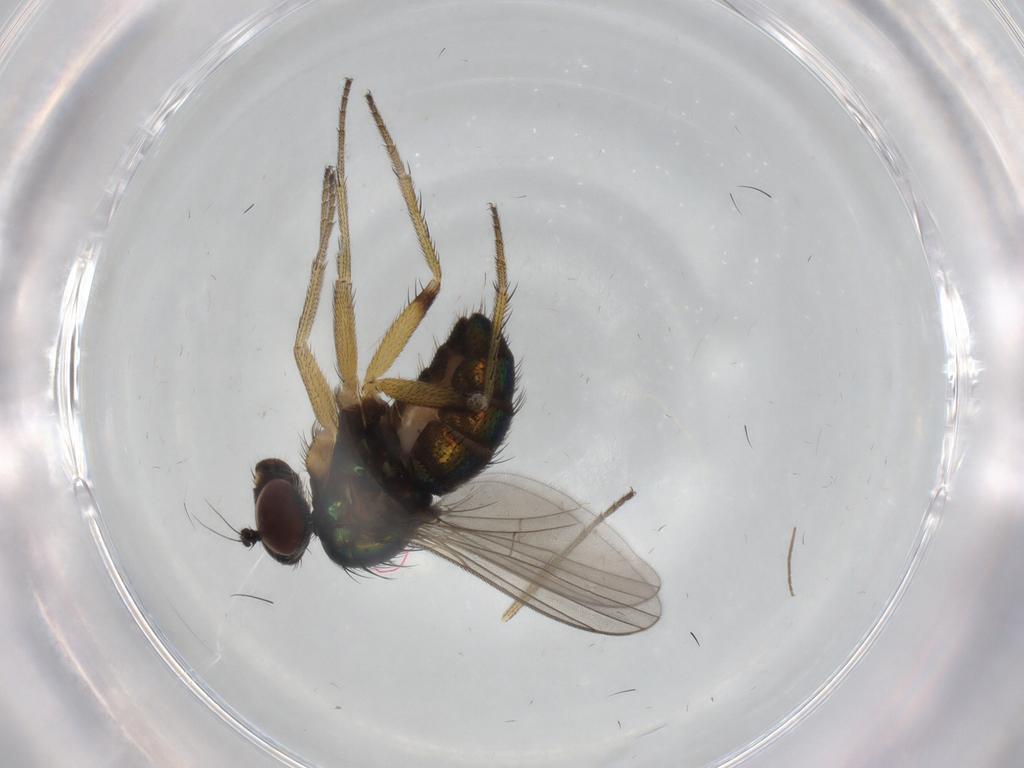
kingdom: Animalia
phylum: Arthropoda
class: Insecta
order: Diptera
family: Dolichopodidae
